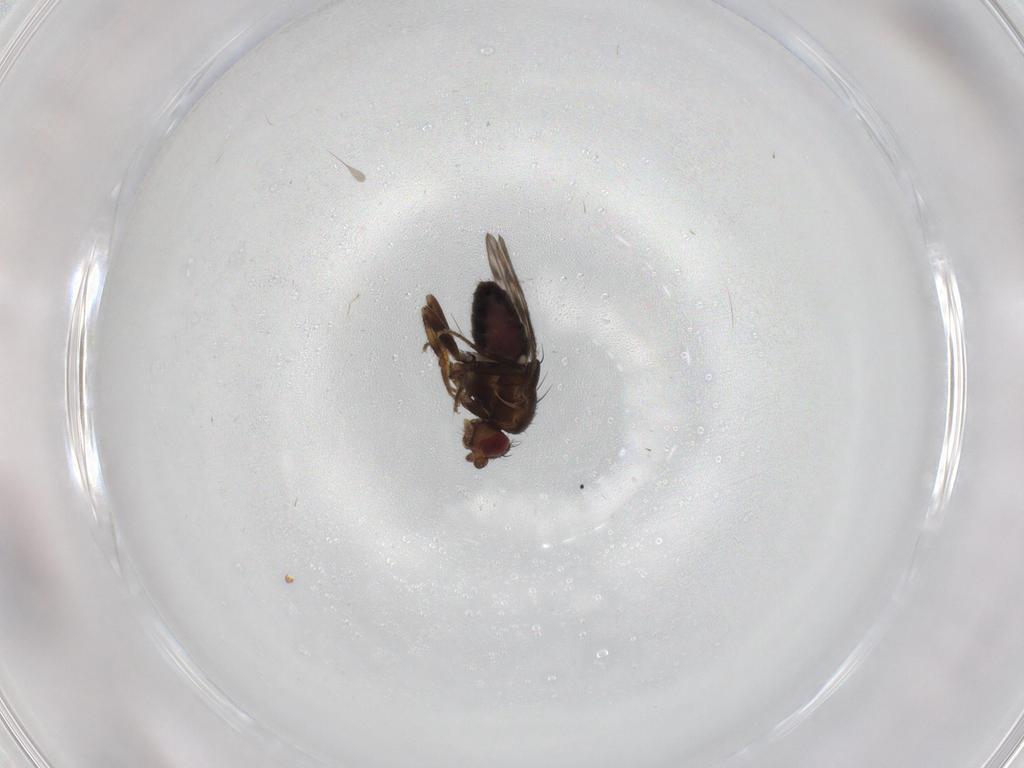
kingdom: Animalia
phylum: Arthropoda
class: Insecta
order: Diptera
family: Sphaeroceridae
